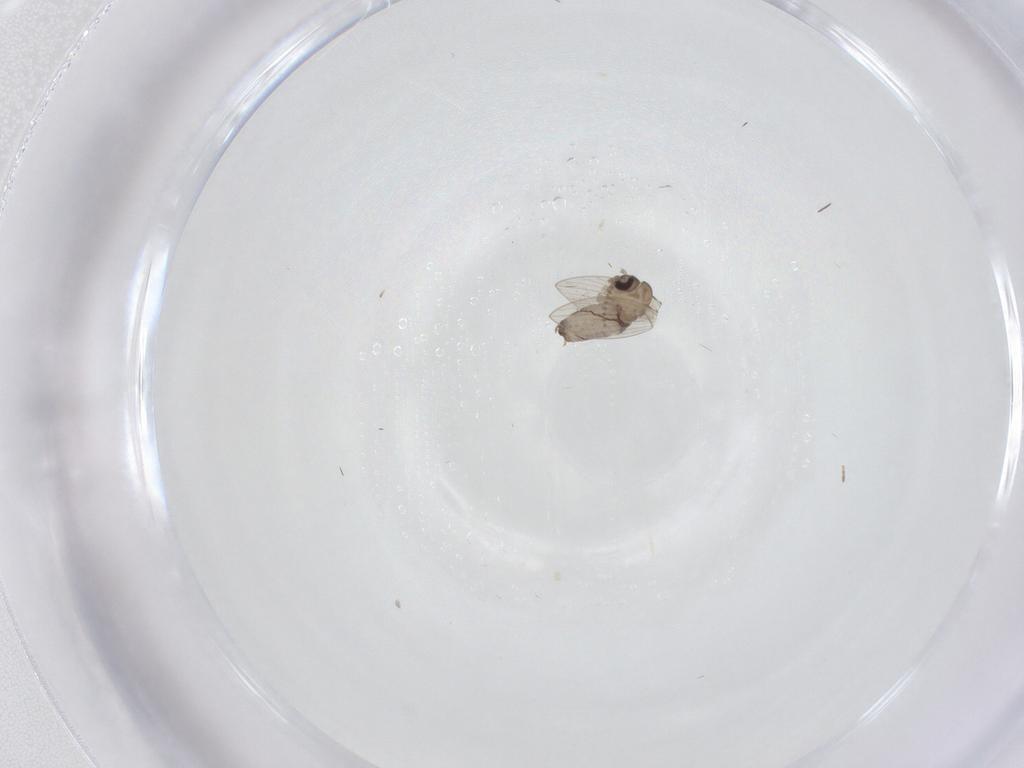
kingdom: Animalia
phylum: Arthropoda
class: Insecta
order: Diptera
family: Psychodidae
